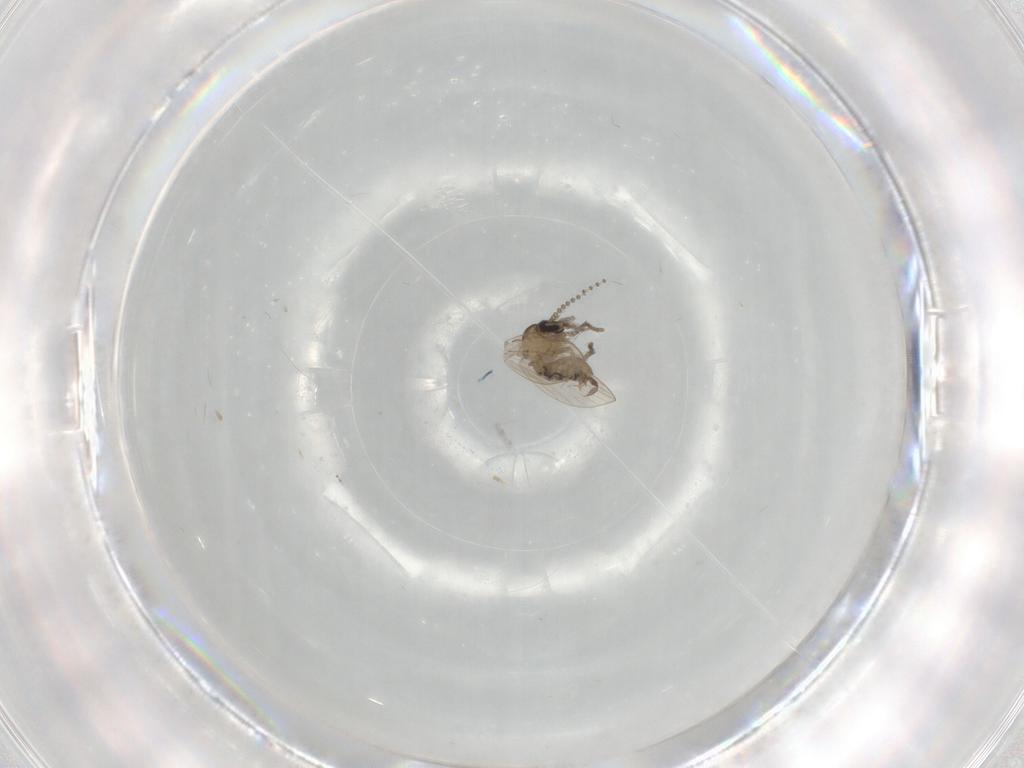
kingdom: Animalia
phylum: Arthropoda
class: Insecta
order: Diptera
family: Psychodidae
